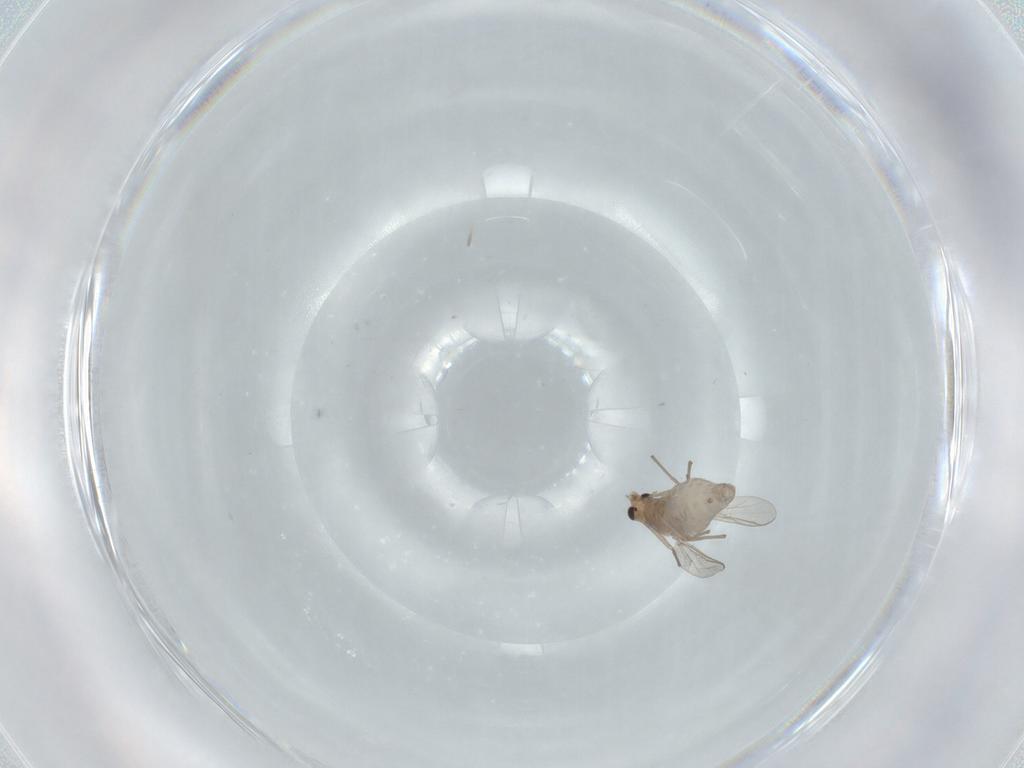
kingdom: Animalia
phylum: Arthropoda
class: Insecta
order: Diptera
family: Chironomidae
